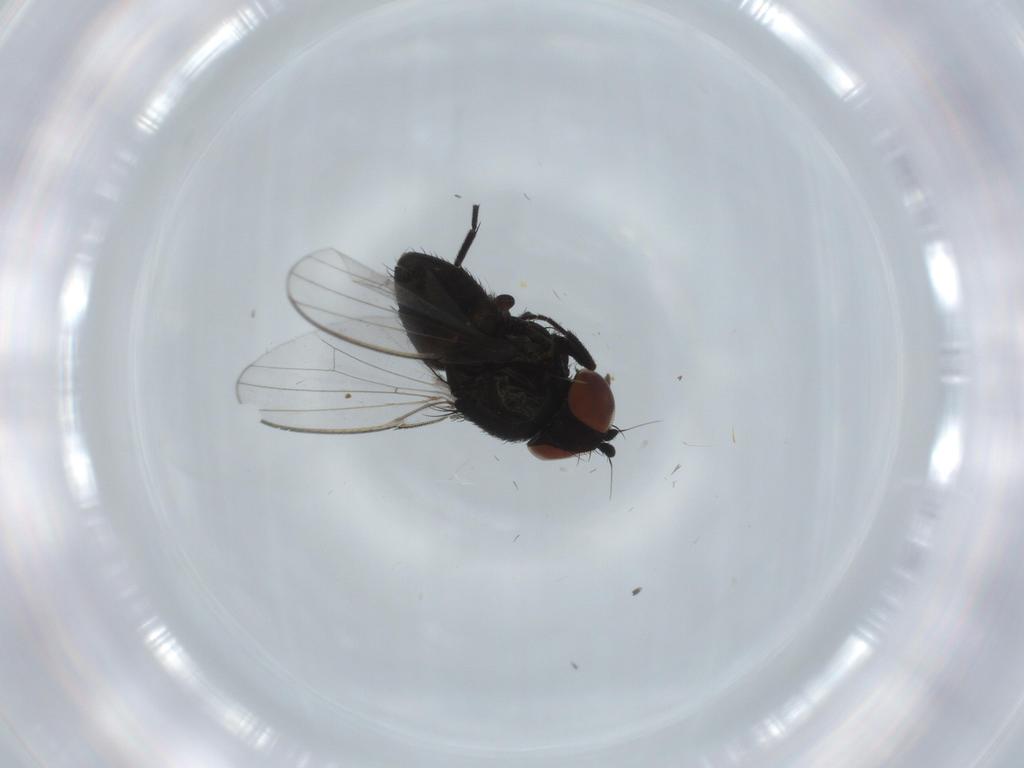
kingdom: Animalia
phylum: Arthropoda
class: Insecta
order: Diptera
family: Milichiidae
